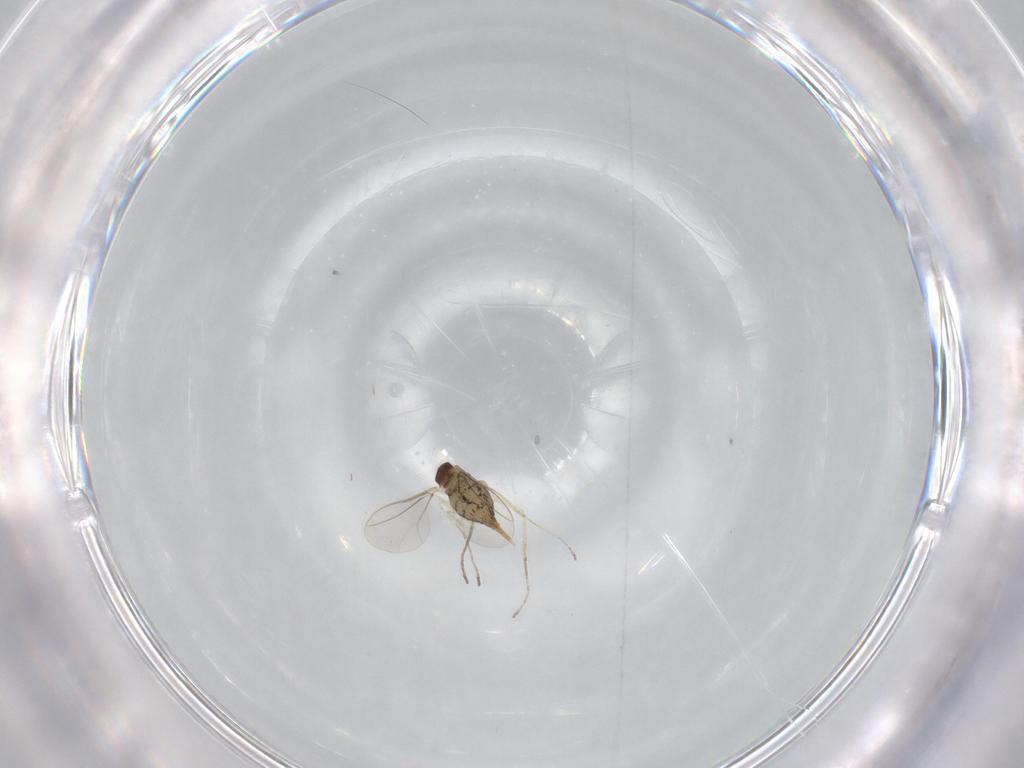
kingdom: Animalia
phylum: Arthropoda
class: Insecta
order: Diptera
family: Cecidomyiidae
